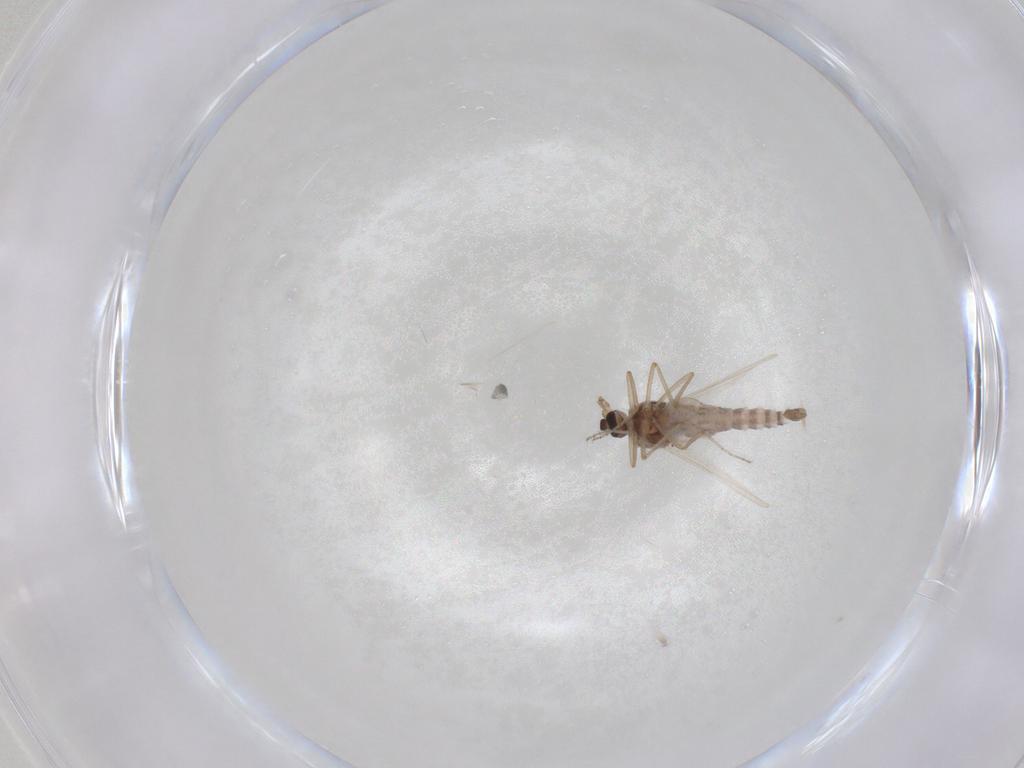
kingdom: Animalia
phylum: Arthropoda
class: Insecta
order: Diptera
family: Ceratopogonidae
